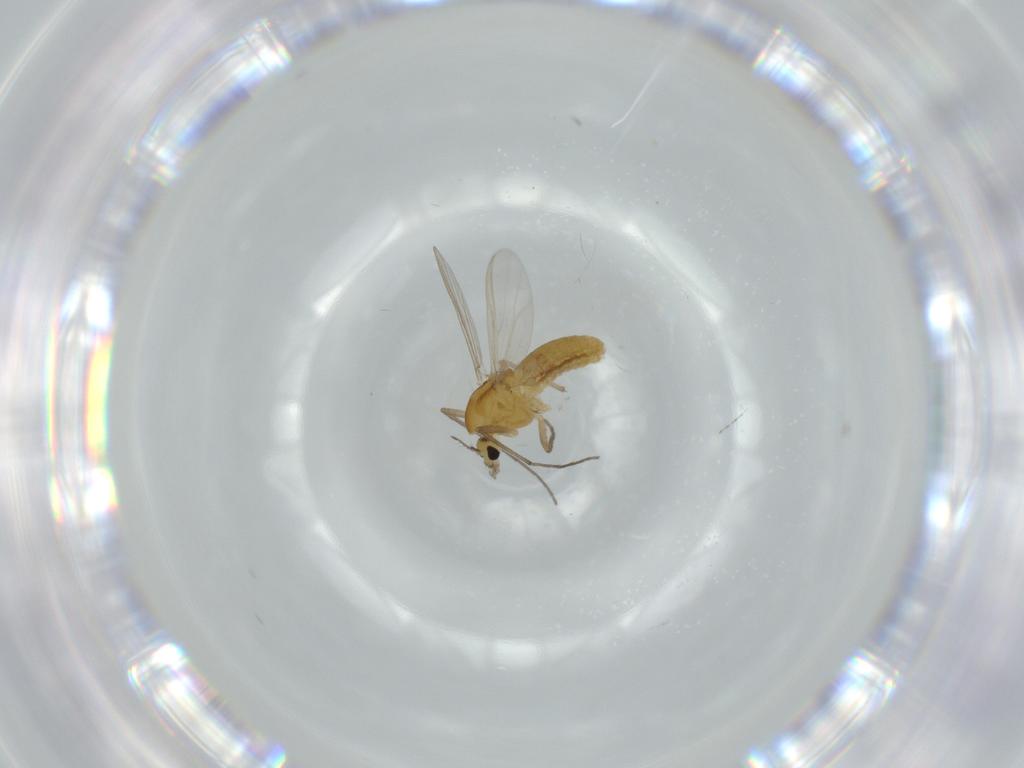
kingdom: Animalia
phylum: Arthropoda
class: Insecta
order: Diptera
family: Chironomidae
